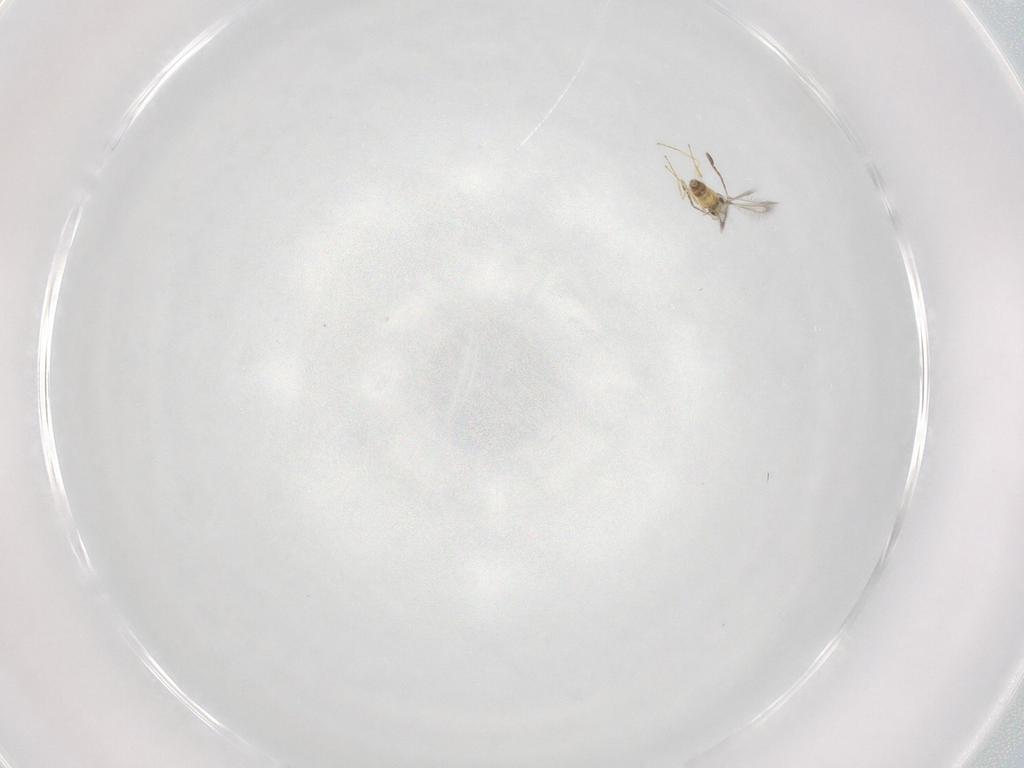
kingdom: Animalia
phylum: Arthropoda
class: Insecta
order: Hymenoptera
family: Mymaridae
